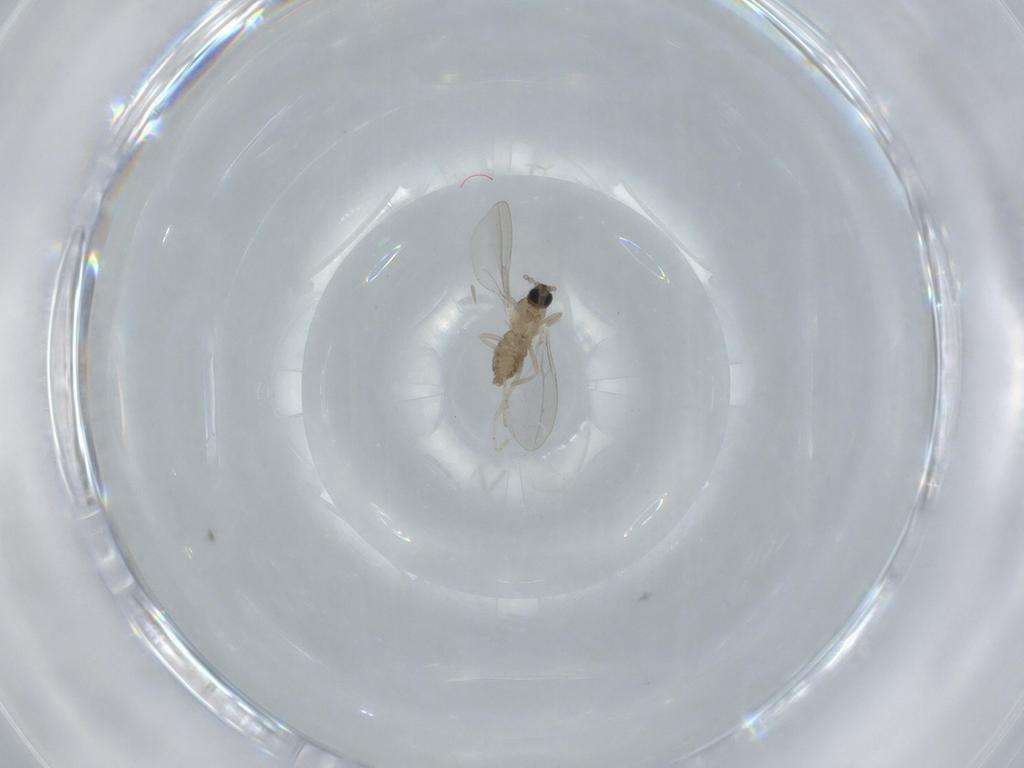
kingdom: Animalia
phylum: Arthropoda
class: Insecta
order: Diptera
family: Cecidomyiidae
